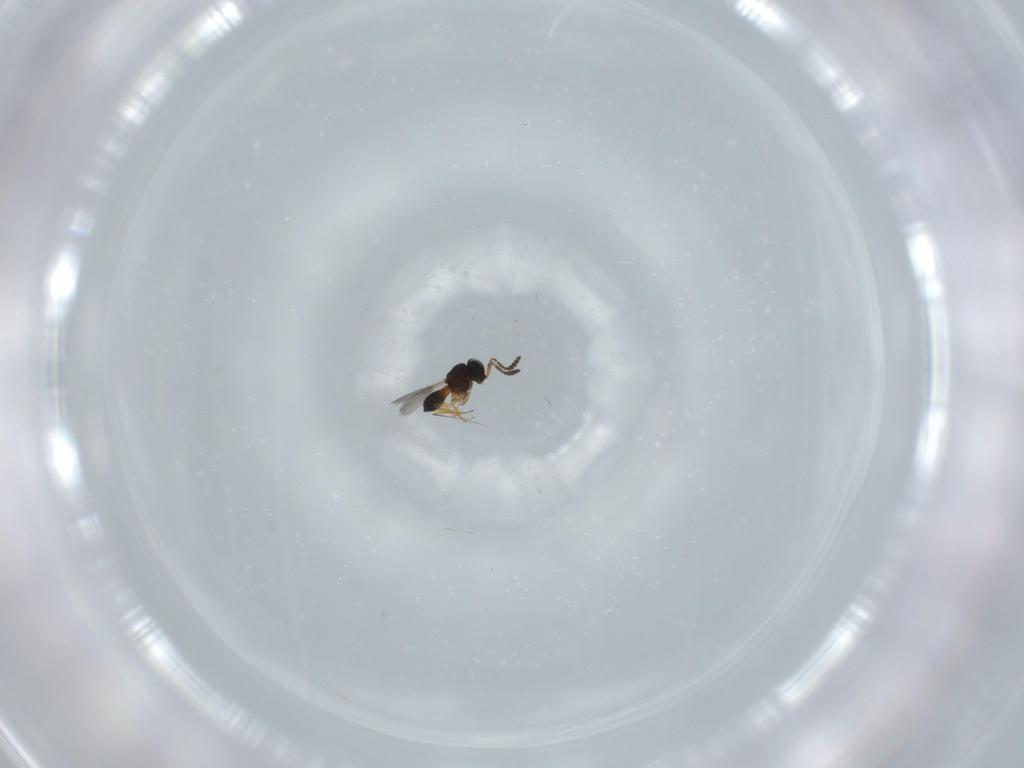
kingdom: Animalia
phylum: Arthropoda
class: Insecta
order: Hymenoptera
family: Scelionidae
